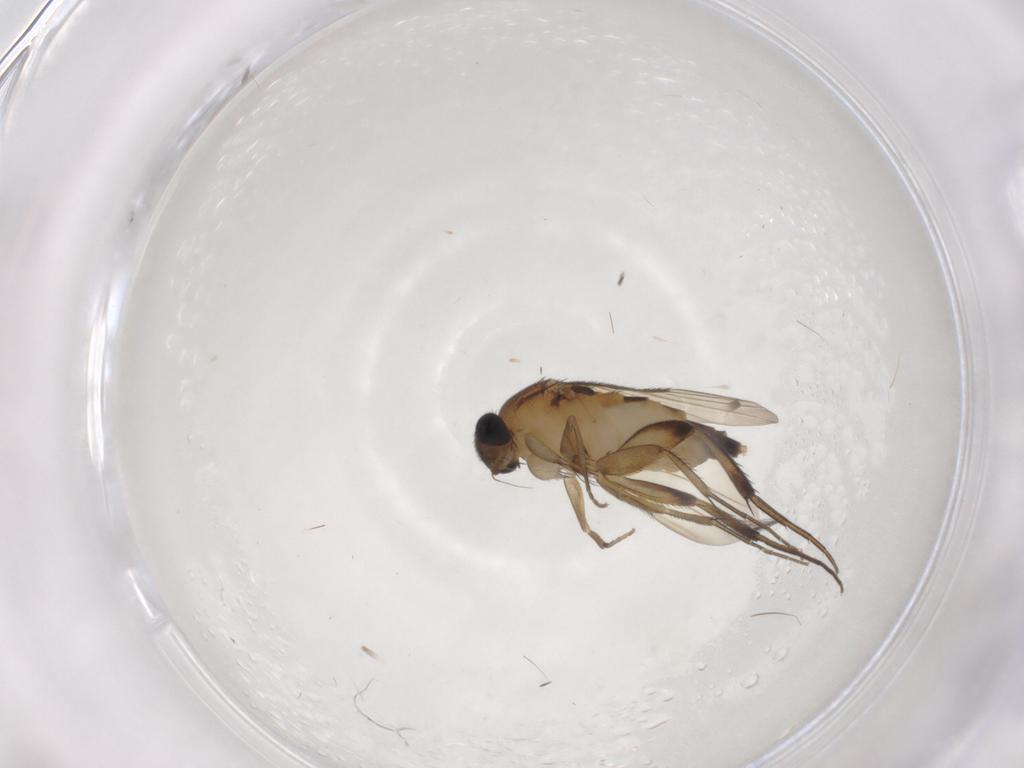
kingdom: Animalia
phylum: Arthropoda
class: Insecta
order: Diptera
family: Phoridae
